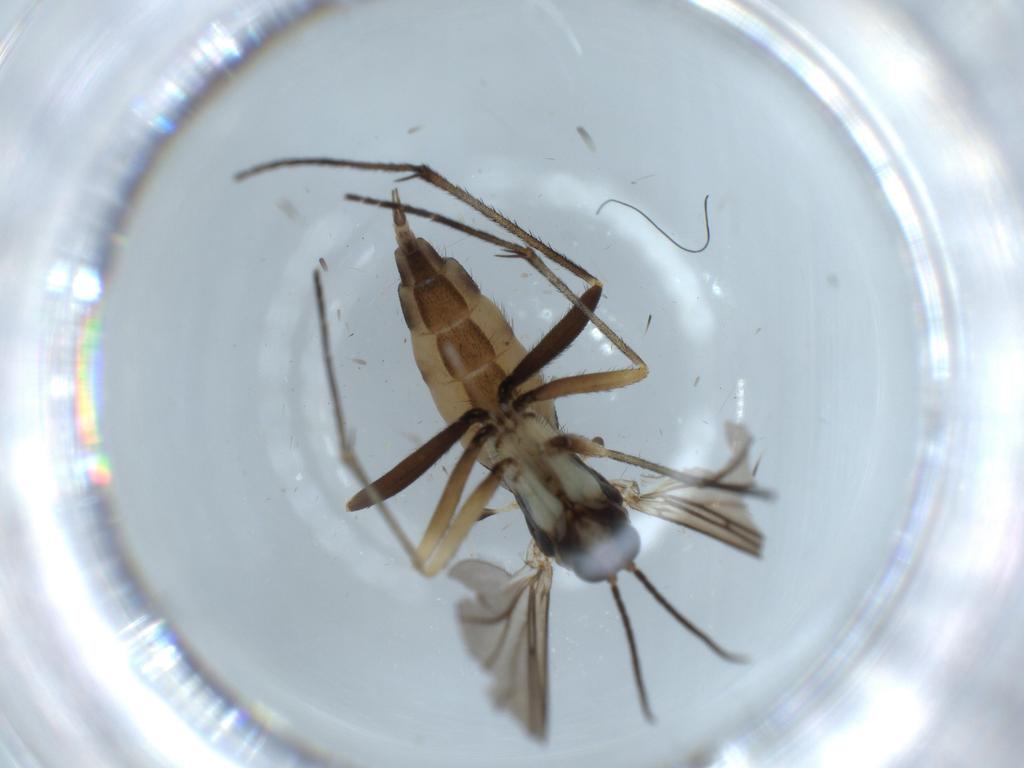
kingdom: Animalia
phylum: Arthropoda
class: Insecta
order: Diptera
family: Sciaridae
